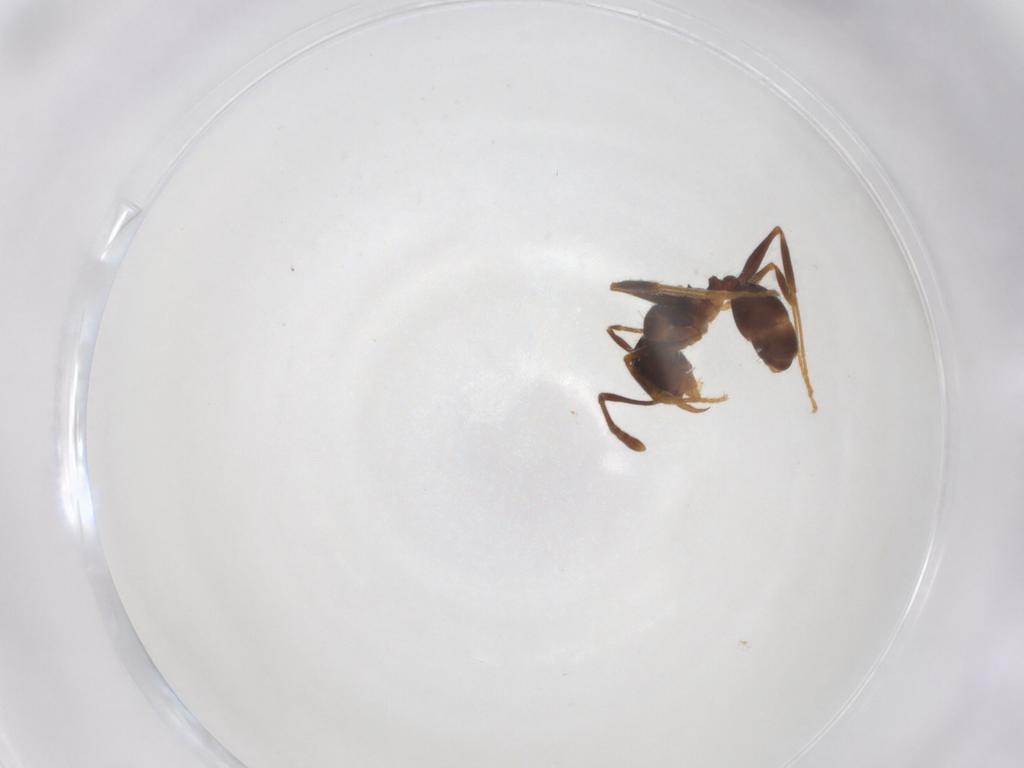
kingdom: Animalia
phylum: Arthropoda
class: Insecta
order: Hymenoptera
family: Formicidae
